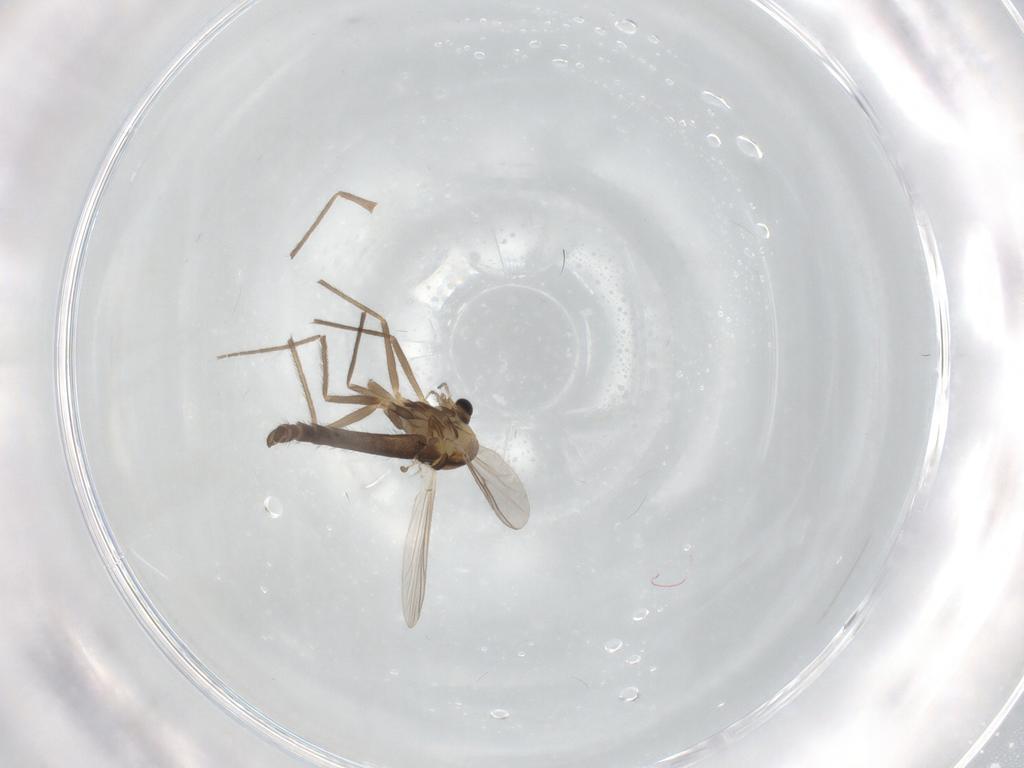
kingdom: Animalia
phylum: Arthropoda
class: Insecta
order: Diptera
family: Chironomidae
